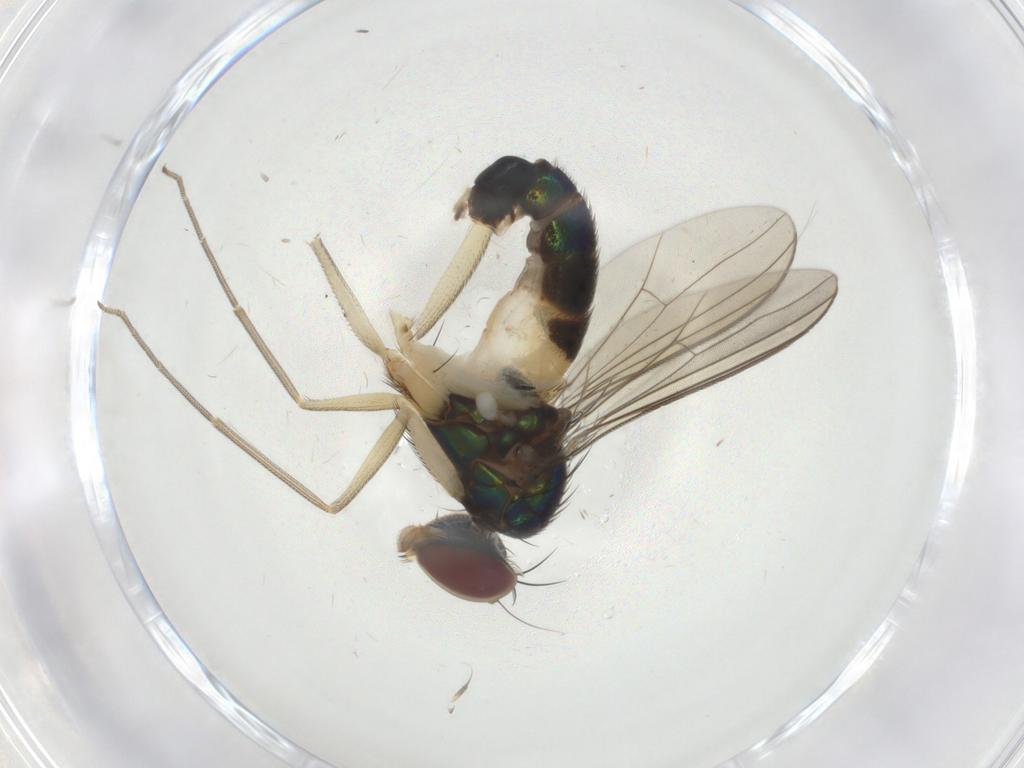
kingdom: Animalia
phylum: Arthropoda
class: Insecta
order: Diptera
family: Dolichopodidae
